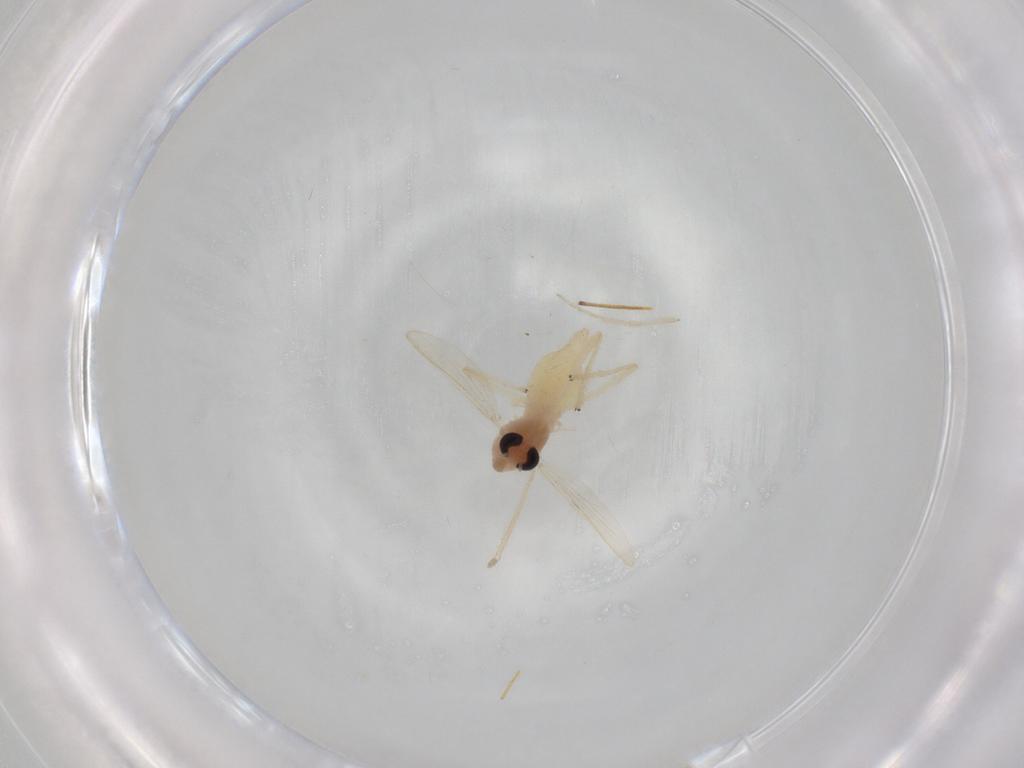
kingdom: Animalia
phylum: Arthropoda
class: Insecta
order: Diptera
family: Chironomidae
